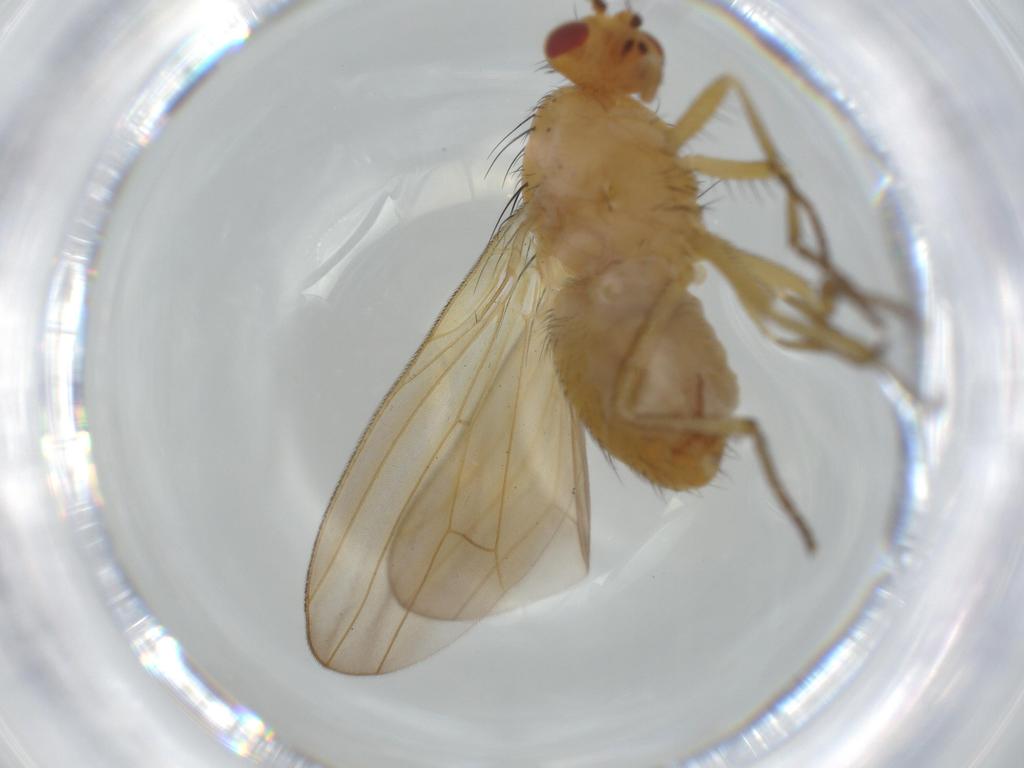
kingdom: Animalia
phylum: Arthropoda
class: Insecta
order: Diptera
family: Lauxaniidae
